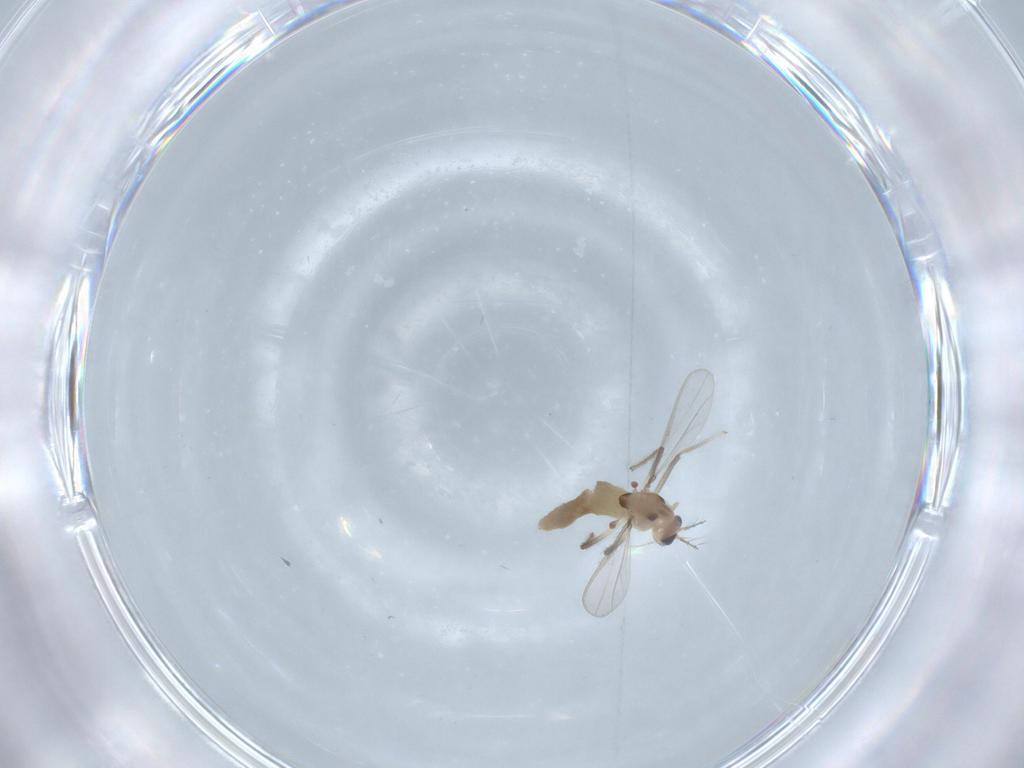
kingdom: Animalia
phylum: Arthropoda
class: Insecta
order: Diptera
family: Chironomidae
